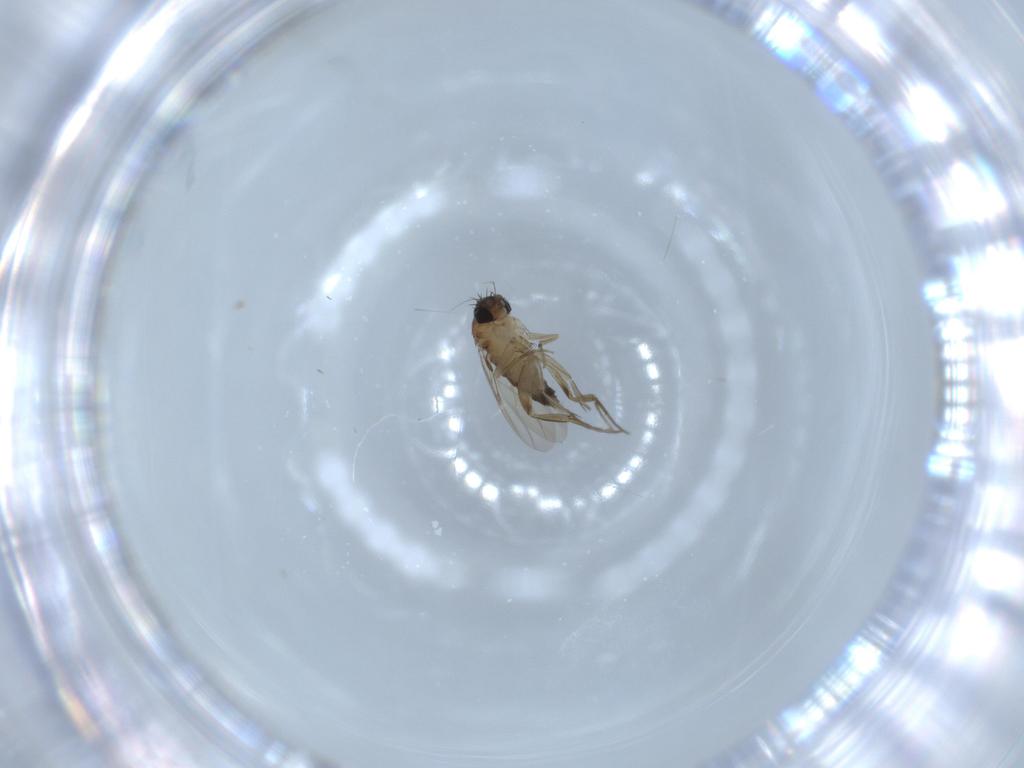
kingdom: Animalia
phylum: Arthropoda
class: Insecta
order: Diptera
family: Phoridae
